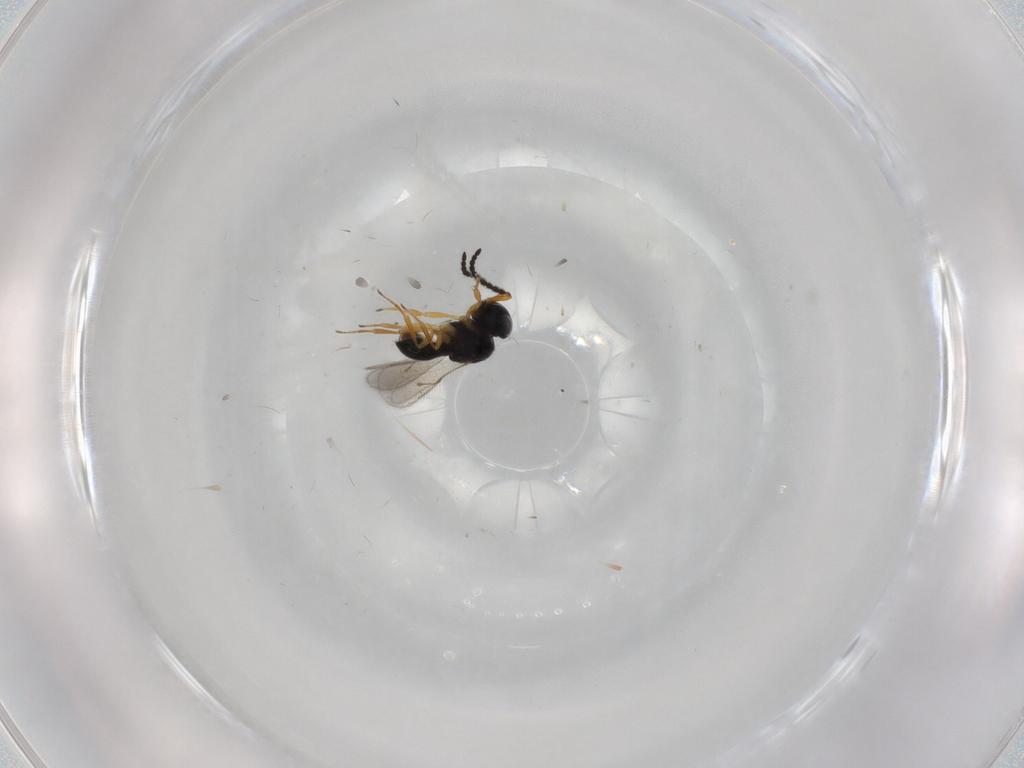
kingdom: Animalia
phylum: Arthropoda
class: Insecta
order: Hymenoptera
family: Scelionidae
